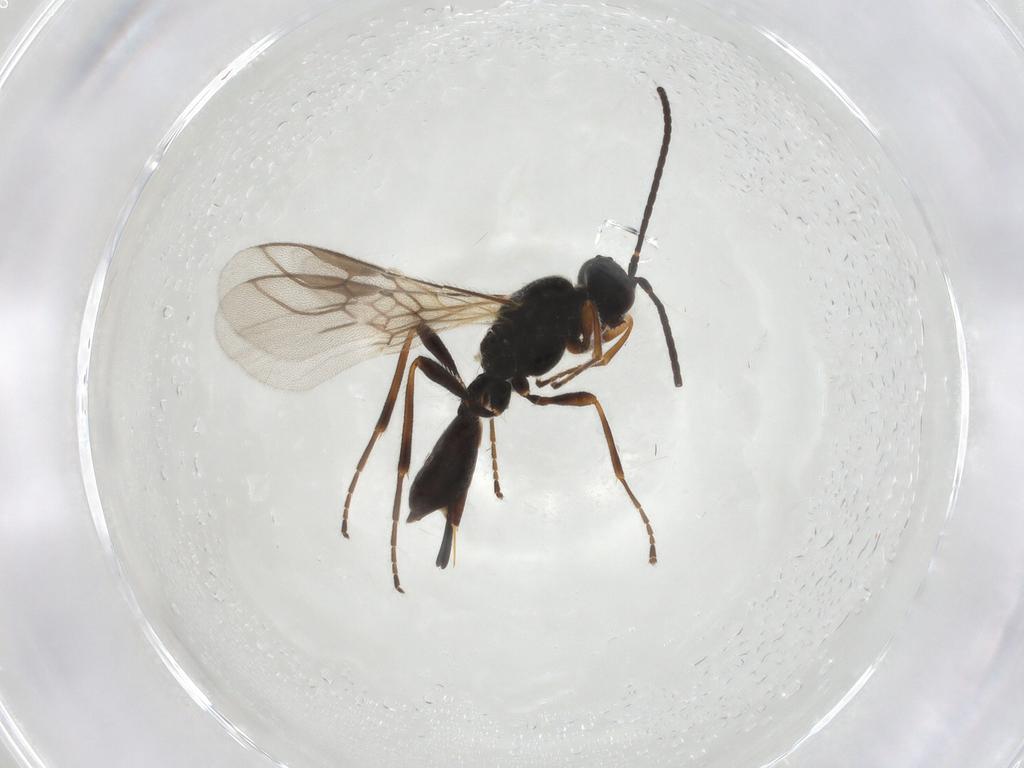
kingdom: Animalia
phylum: Arthropoda
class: Insecta
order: Hymenoptera
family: Braconidae
